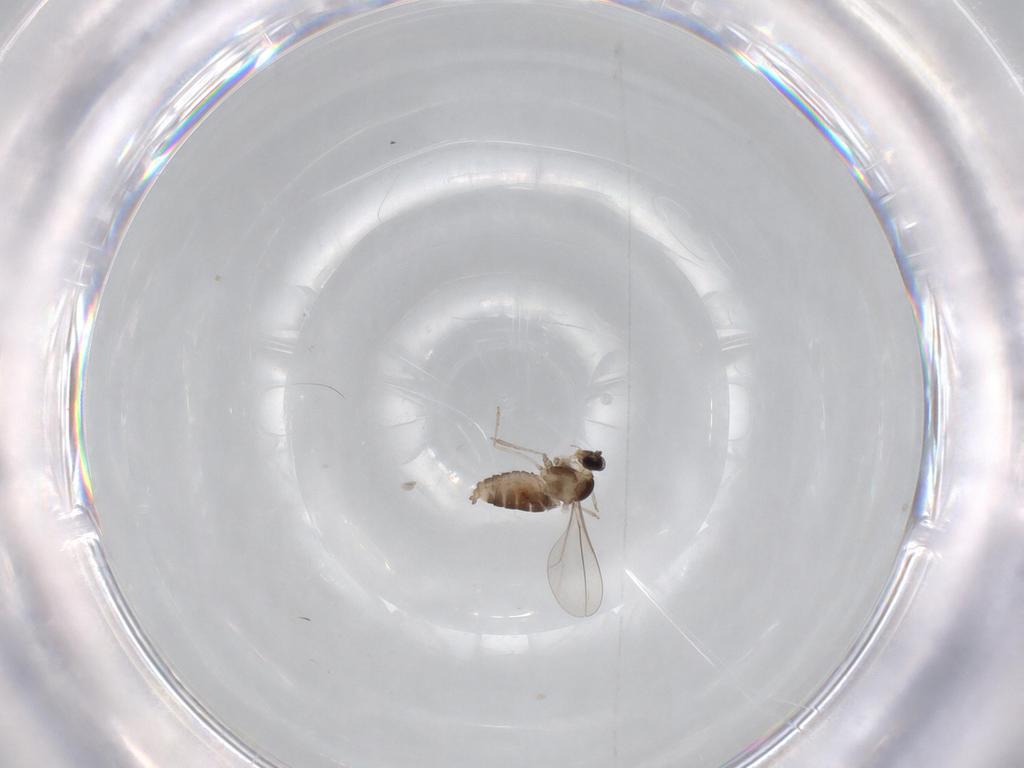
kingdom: Animalia
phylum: Arthropoda
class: Insecta
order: Diptera
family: Cecidomyiidae
